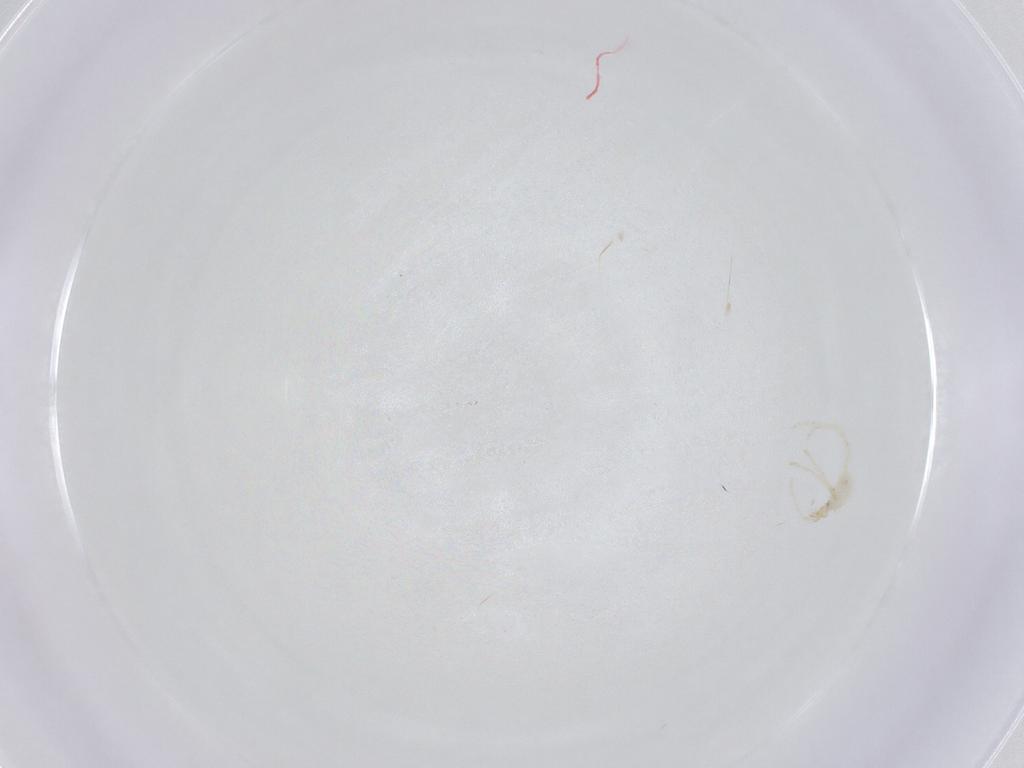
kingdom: Animalia
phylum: Arthropoda
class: Arachnida
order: Trombidiformes
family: Erythraeidae
